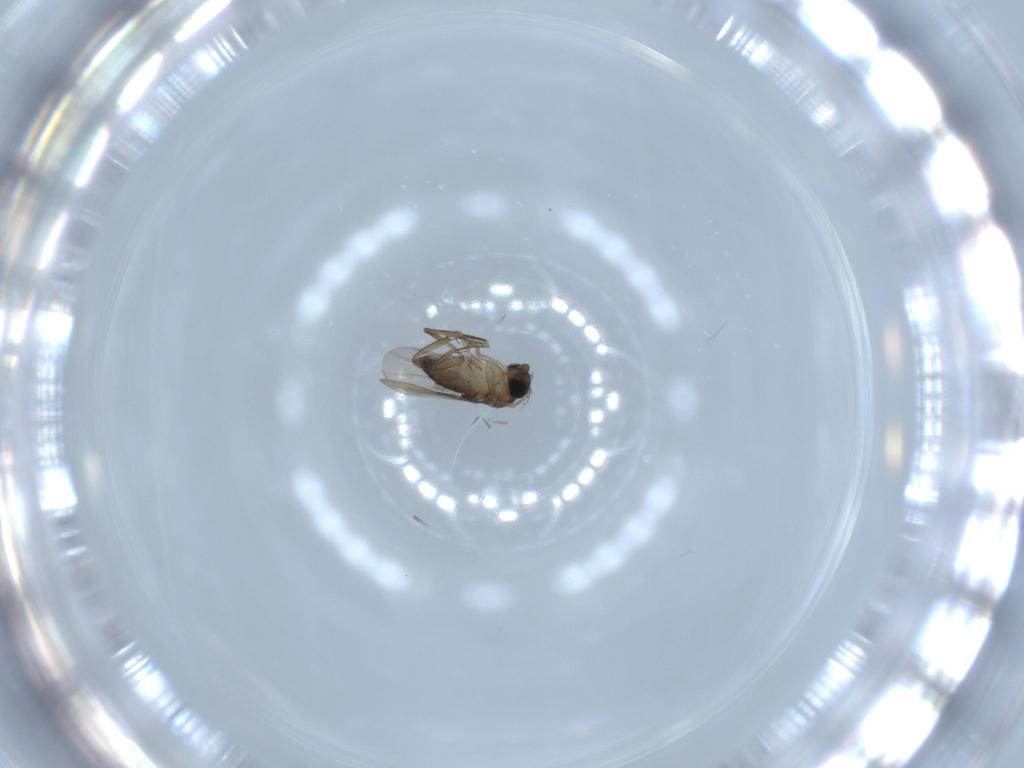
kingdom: Animalia
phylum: Arthropoda
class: Insecta
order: Diptera
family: Phoridae
